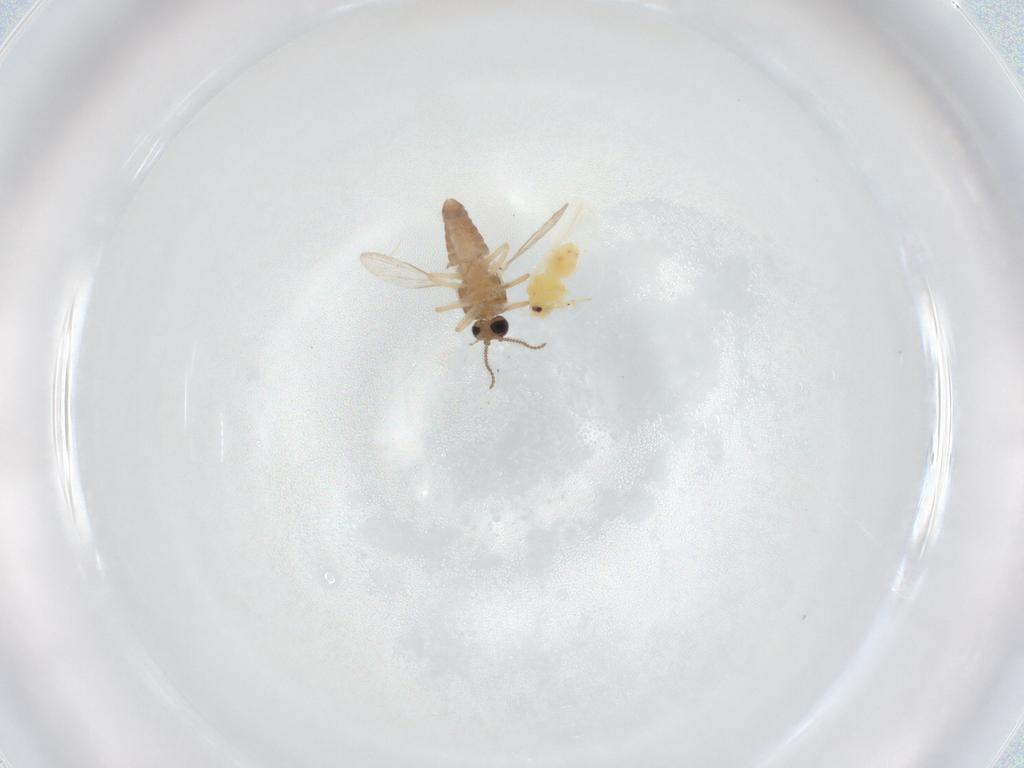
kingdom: Animalia
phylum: Arthropoda
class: Insecta
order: Diptera
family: Ceratopogonidae
